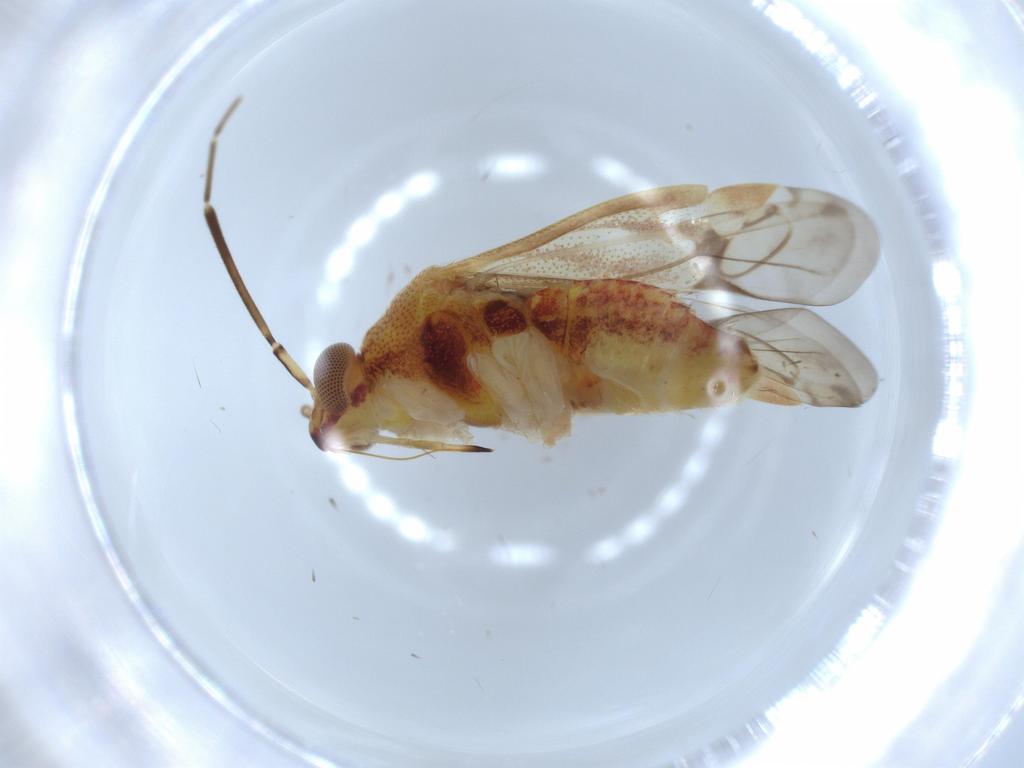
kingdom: Animalia
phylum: Arthropoda
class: Insecta
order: Hemiptera
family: Miridae
